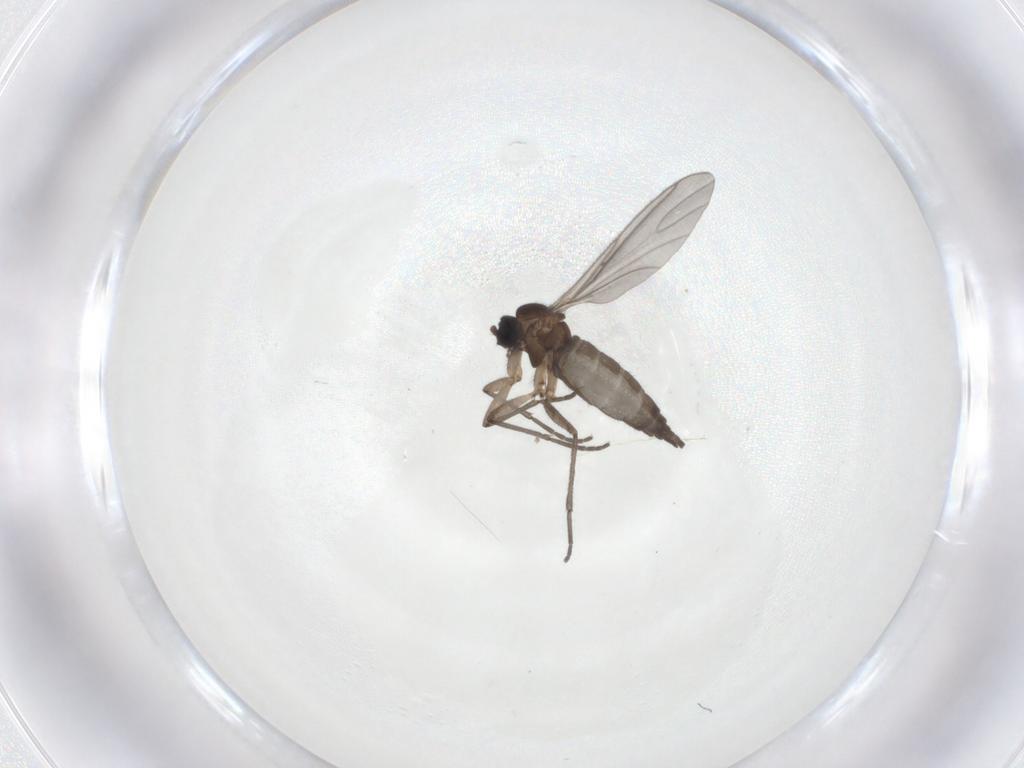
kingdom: Animalia
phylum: Arthropoda
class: Insecta
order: Diptera
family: Sciaridae
